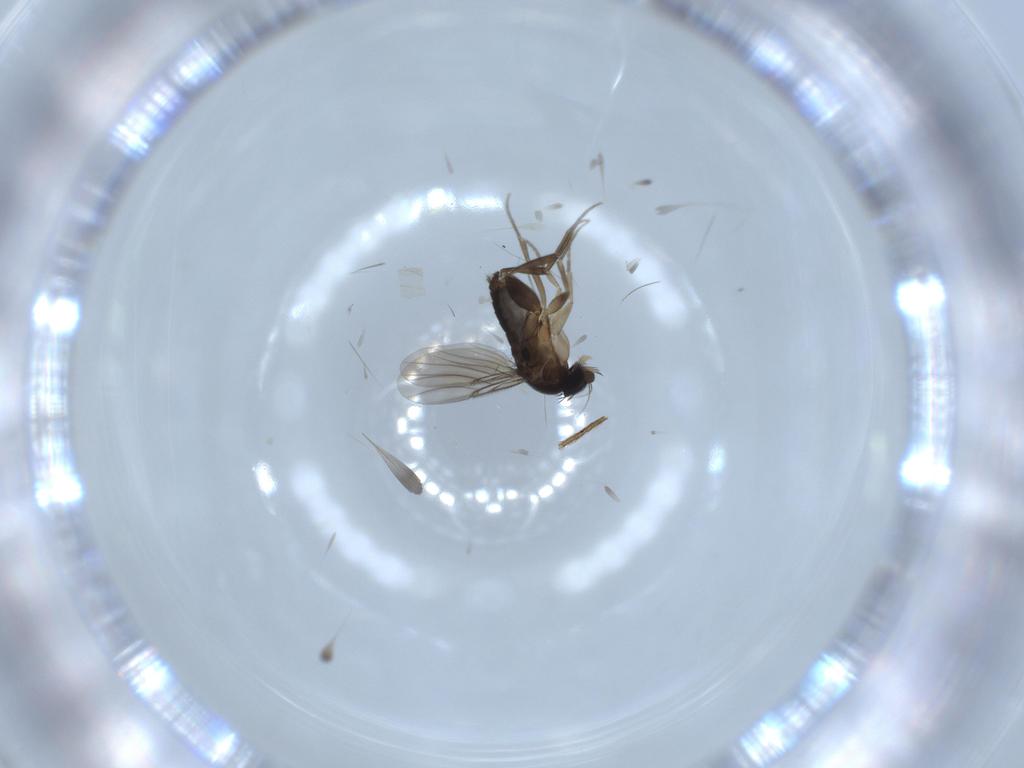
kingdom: Animalia
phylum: Arthropoda
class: Insecta
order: Diptera
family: Phoridae
